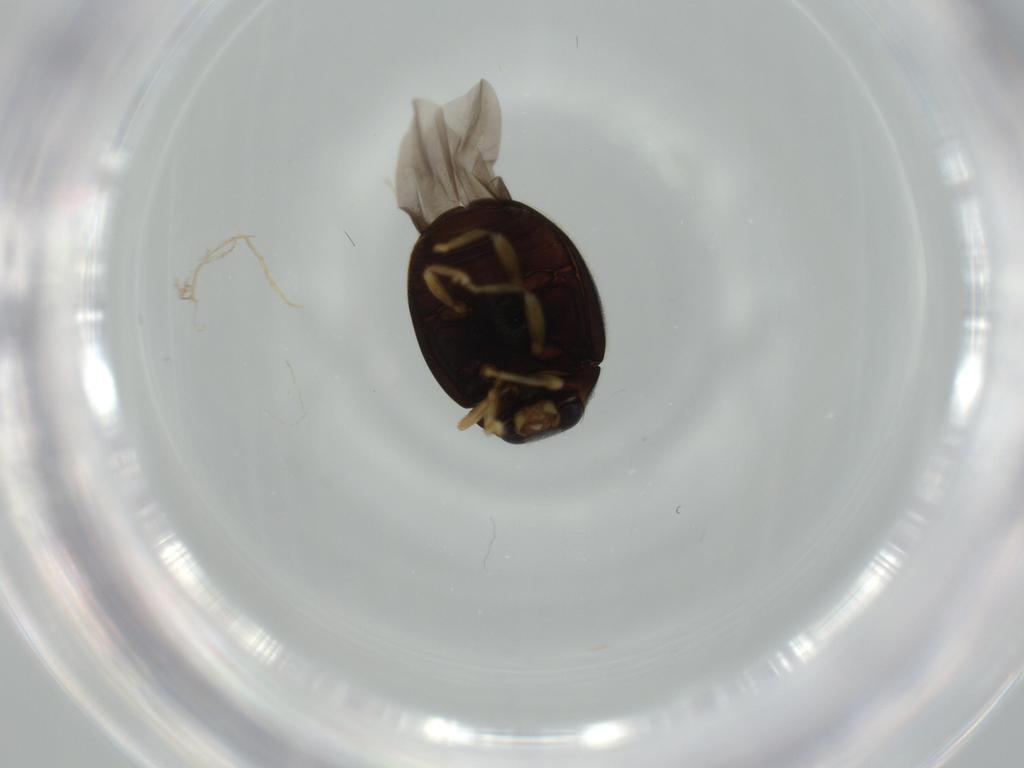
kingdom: Animalia
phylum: Arthropoda
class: Insecta
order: Coleoptera
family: Coccinellidae
